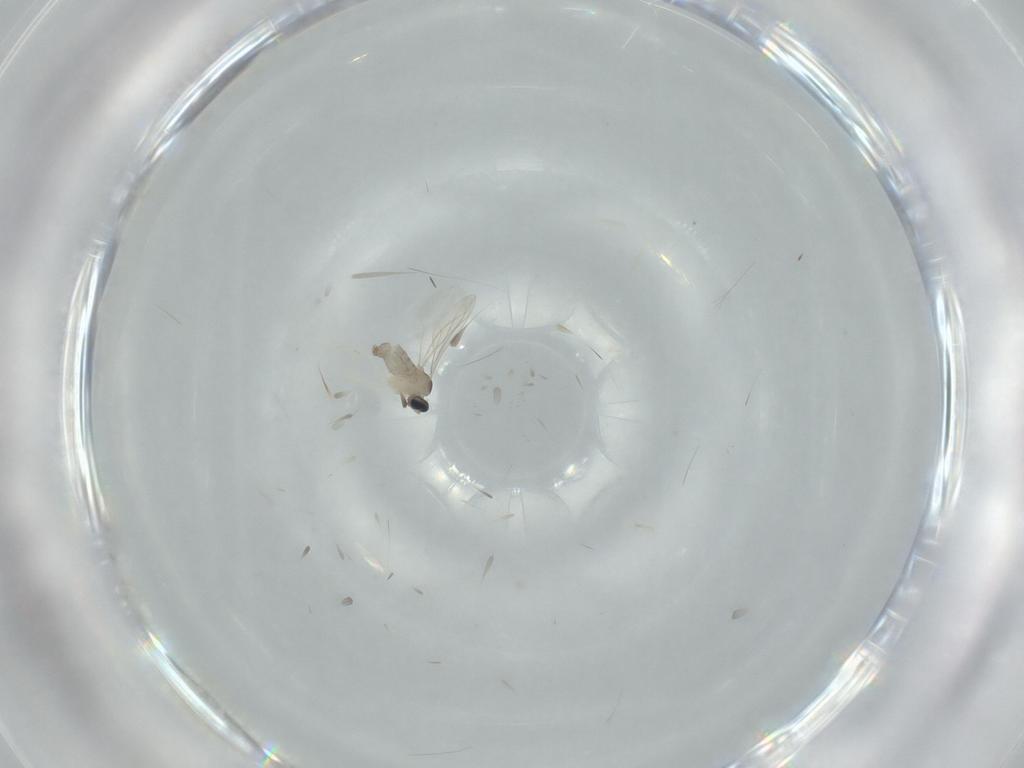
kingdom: Animalia
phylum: Arthropoda
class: Insecta
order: Diptera
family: Cecidomyiidae
